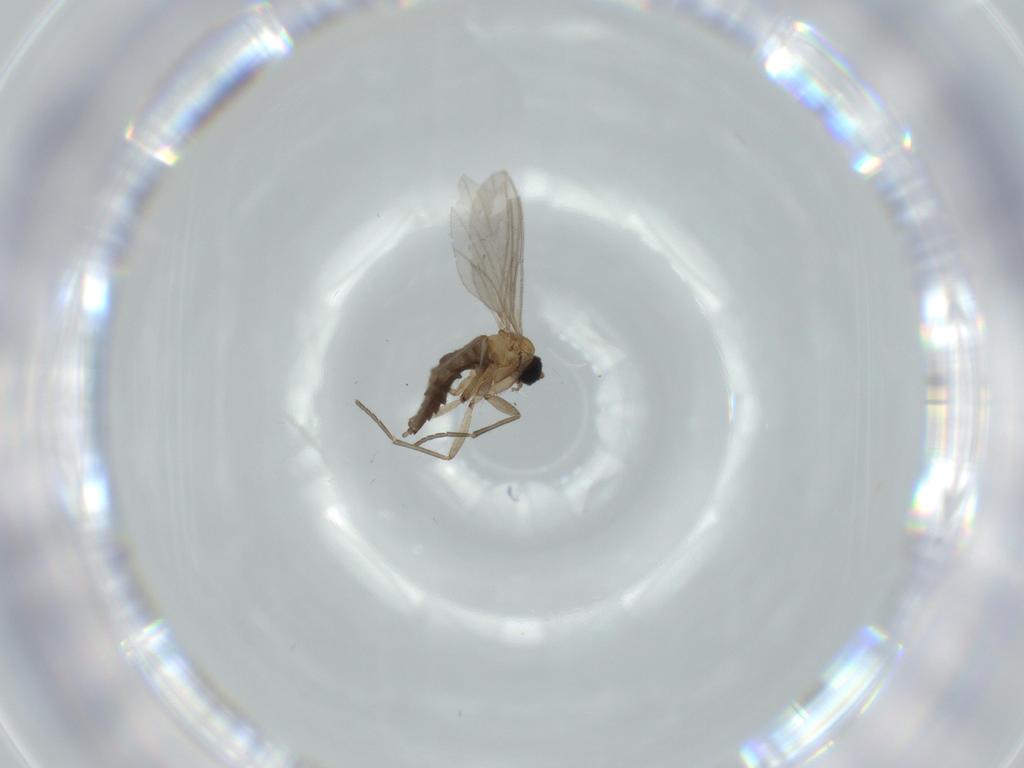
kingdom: Animalia
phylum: Arthropoda
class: Insecta
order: Diptera
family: Sciaridae
